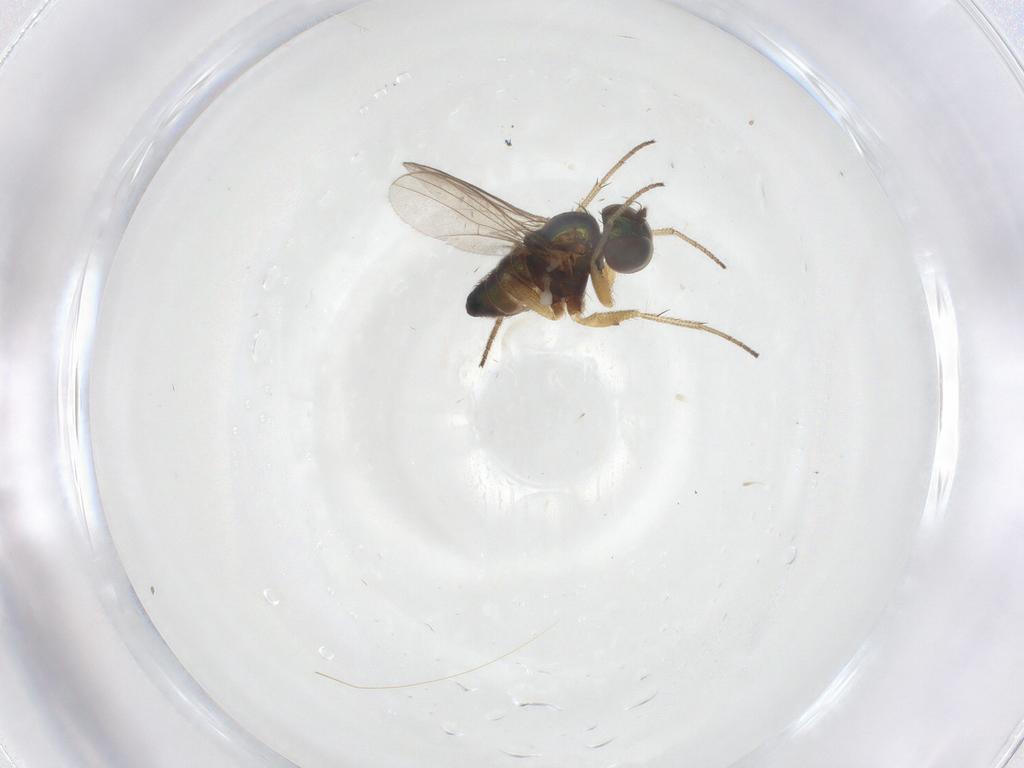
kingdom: Animalia
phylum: Arthropoda
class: Insecta
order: Diptera
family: Chironomidae
